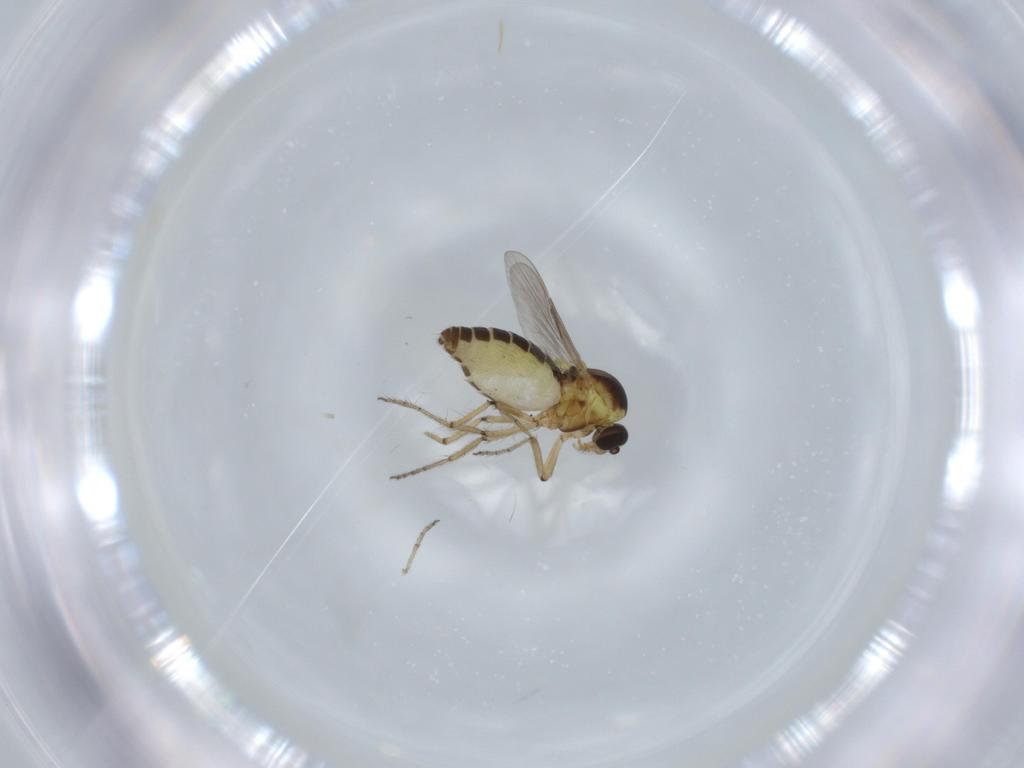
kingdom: Animalia
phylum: Arthropoda
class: Insecta
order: Diptera
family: Ceratopogonidae
